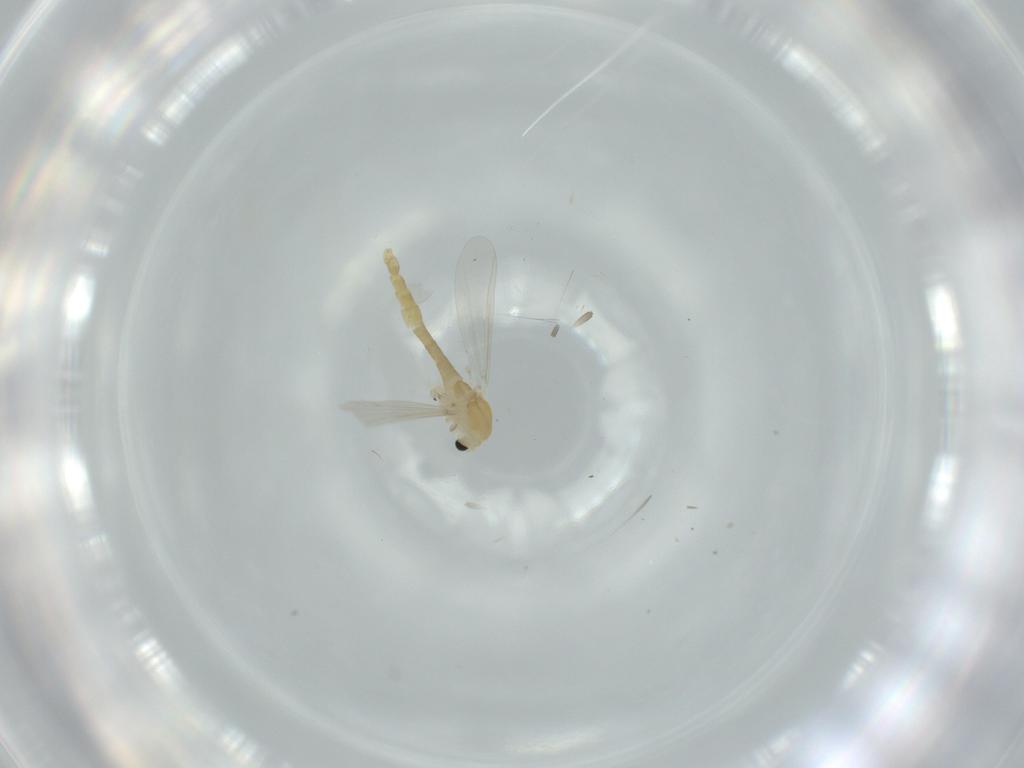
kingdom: Animalia
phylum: Arthropoda
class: Insecta
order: Diptera
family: Chironomidae
